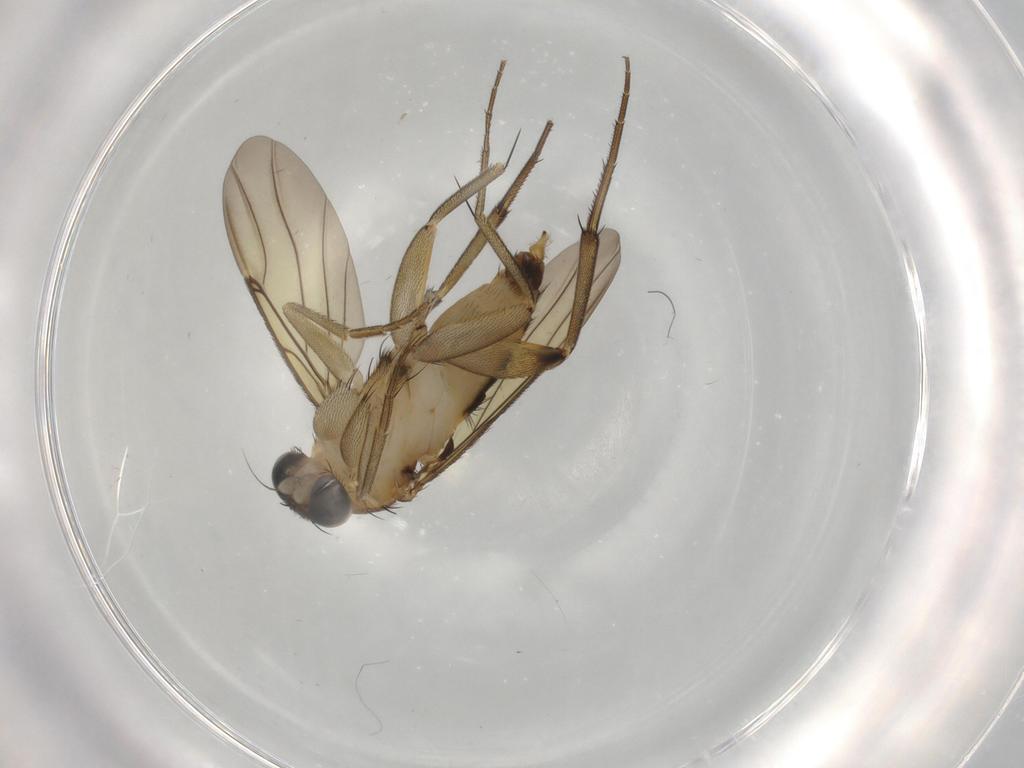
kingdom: Animalia
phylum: Arthropoda
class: Insecta
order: Diptera
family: Cecidomyiidae
